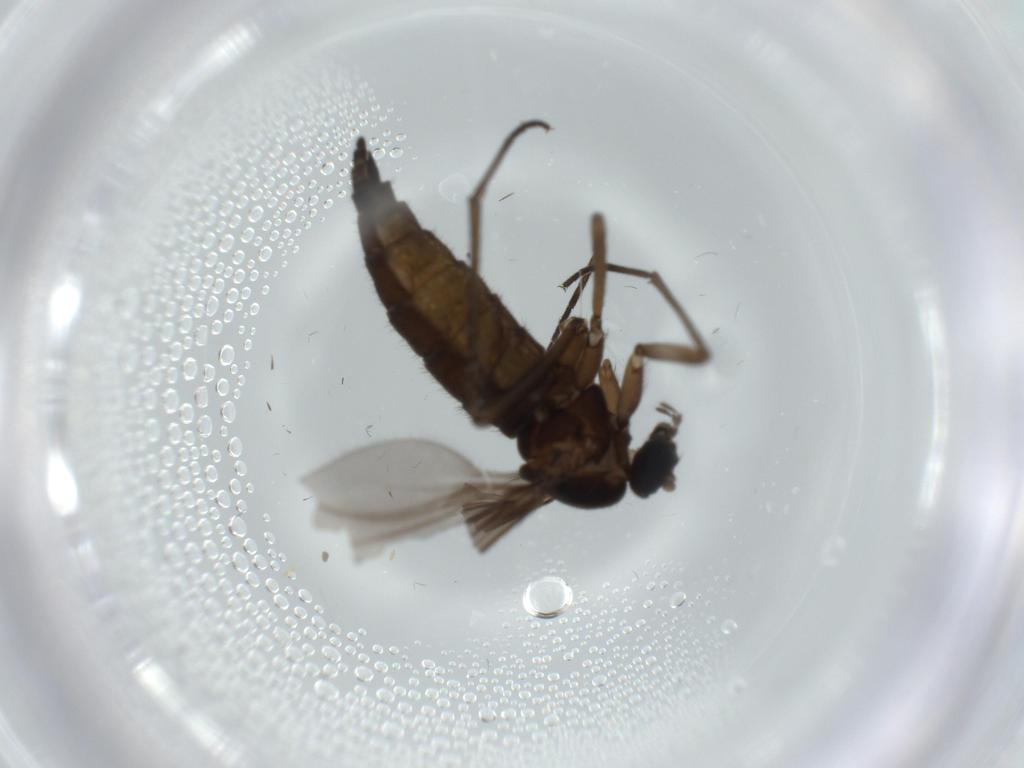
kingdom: Animalia
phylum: Arthropoda
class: Insecta
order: Diptera
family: Sciaridae
